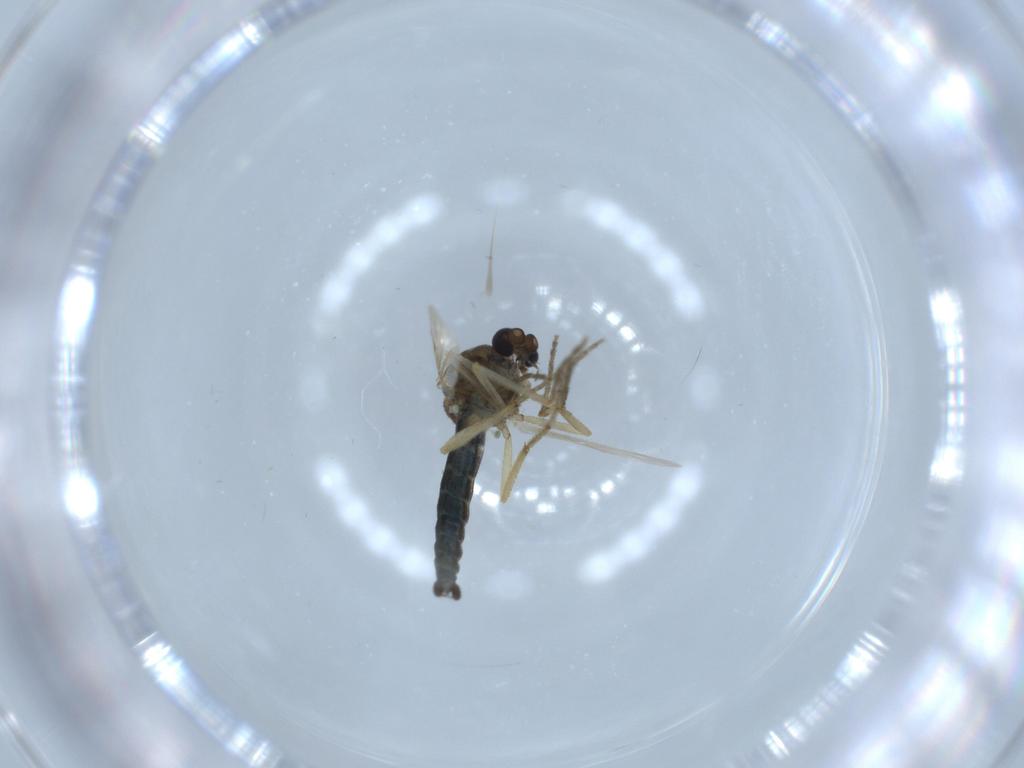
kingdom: Animalia
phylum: Arthropoda
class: Insecta
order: Diptera
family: Ceratopogonidae
